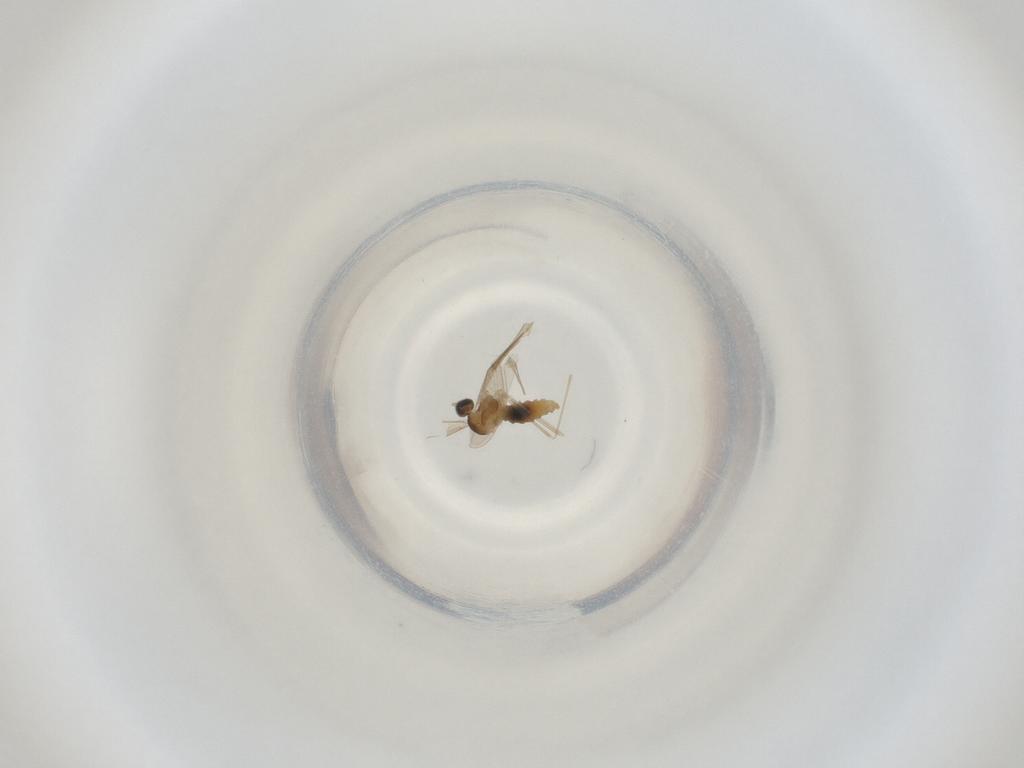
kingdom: Animalia
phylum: Arthropoda
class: Insecta
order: Diptera
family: Cecidomyiidae
